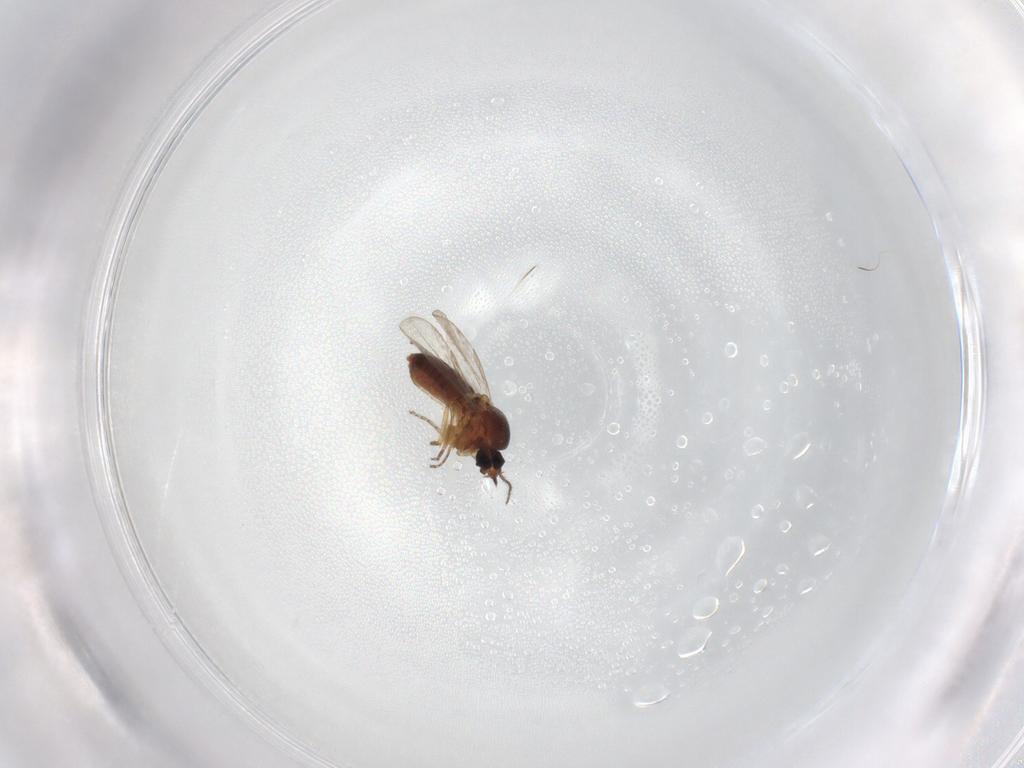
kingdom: Animalia
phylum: Arthropoda
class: Insecta
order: Diptera
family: Ceratopogonidae
